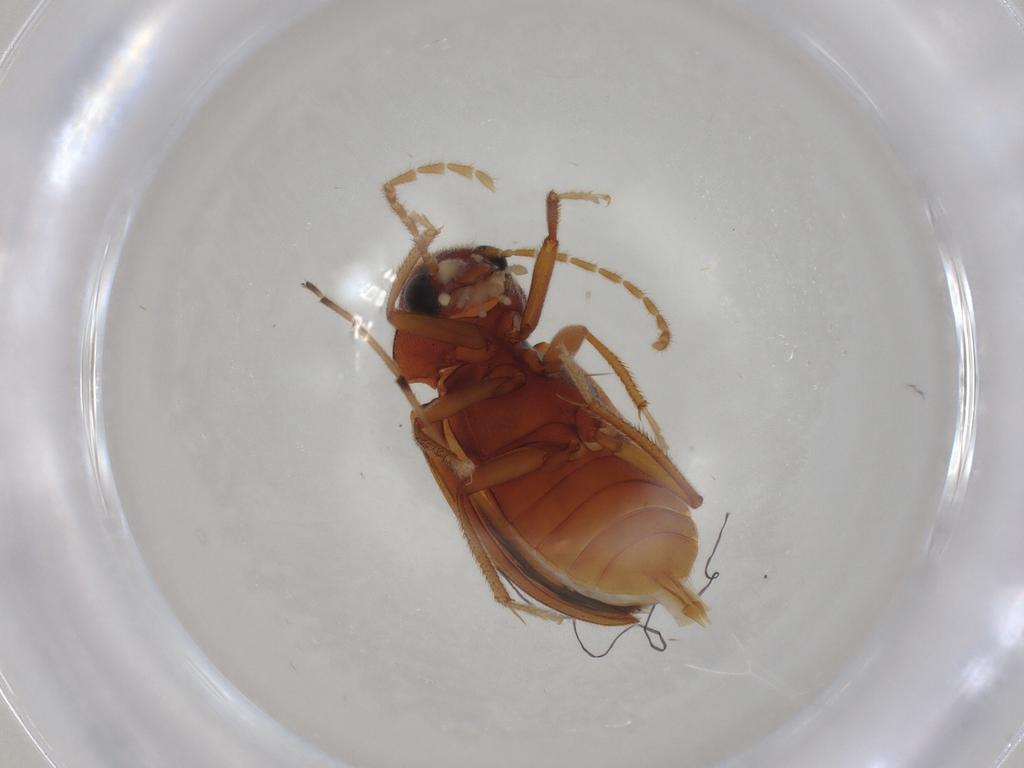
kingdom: Animalia
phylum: Arthropoda
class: Insecta
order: Coleoptera
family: Ptilodactylidae
